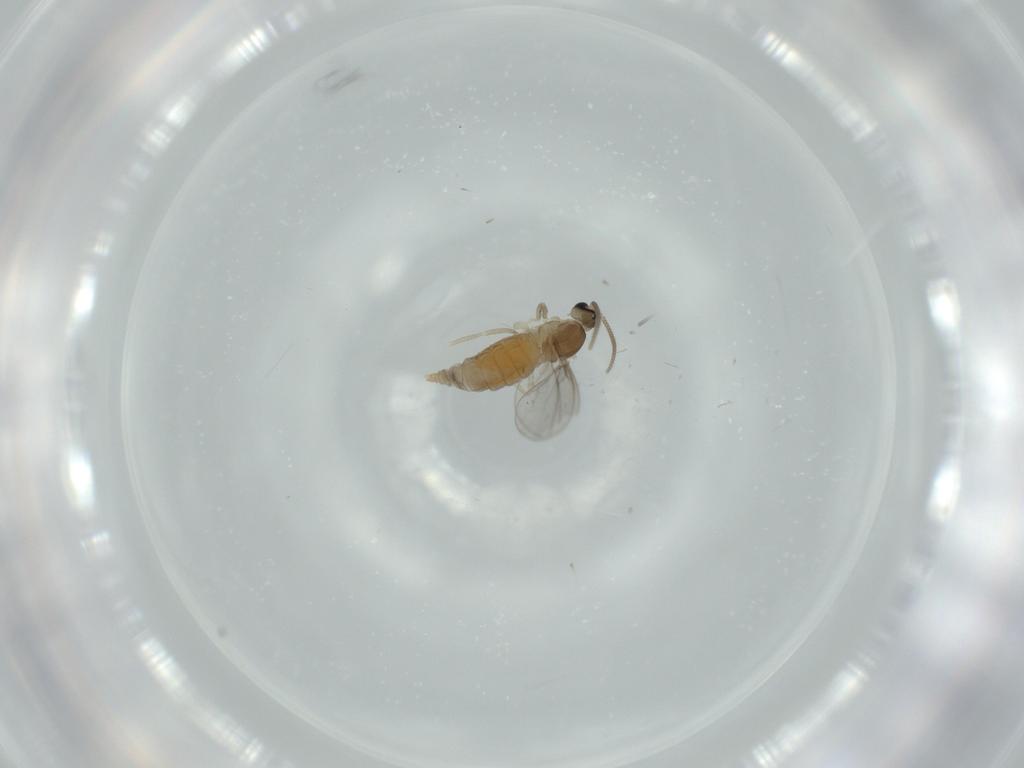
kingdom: Animalia
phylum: Arthropoda
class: Insecta
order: Diptera
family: Cecidomyiidae
